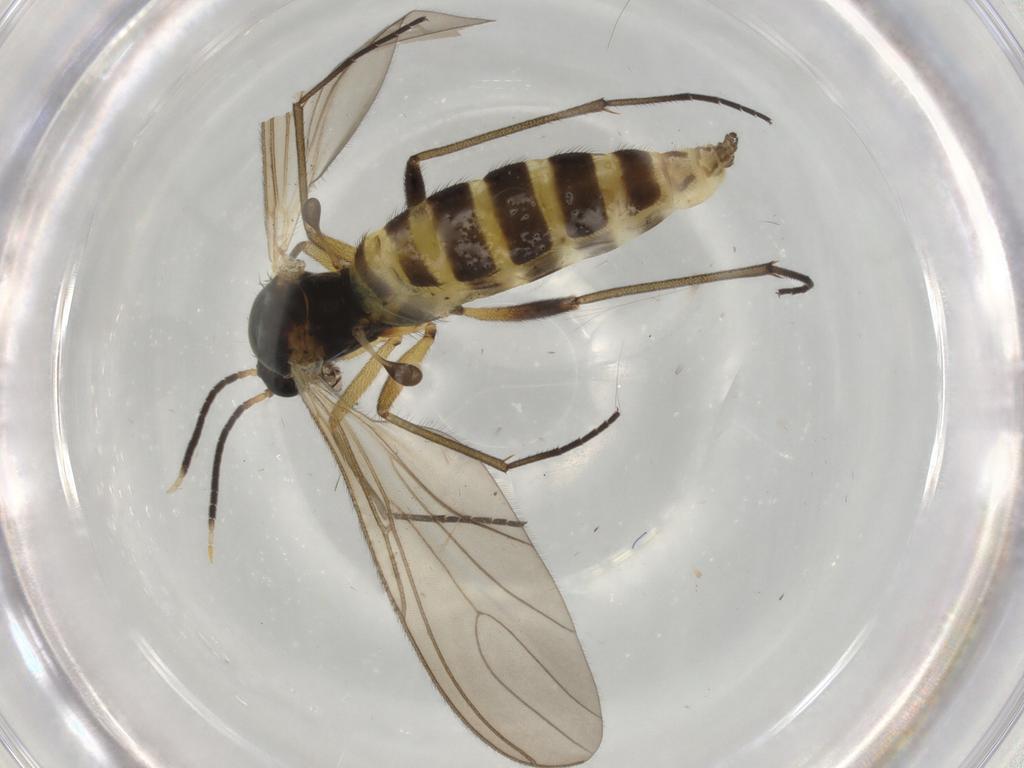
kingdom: Animalia
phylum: Arthropoda
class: Insecta
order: Diptera
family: Sciaridae
